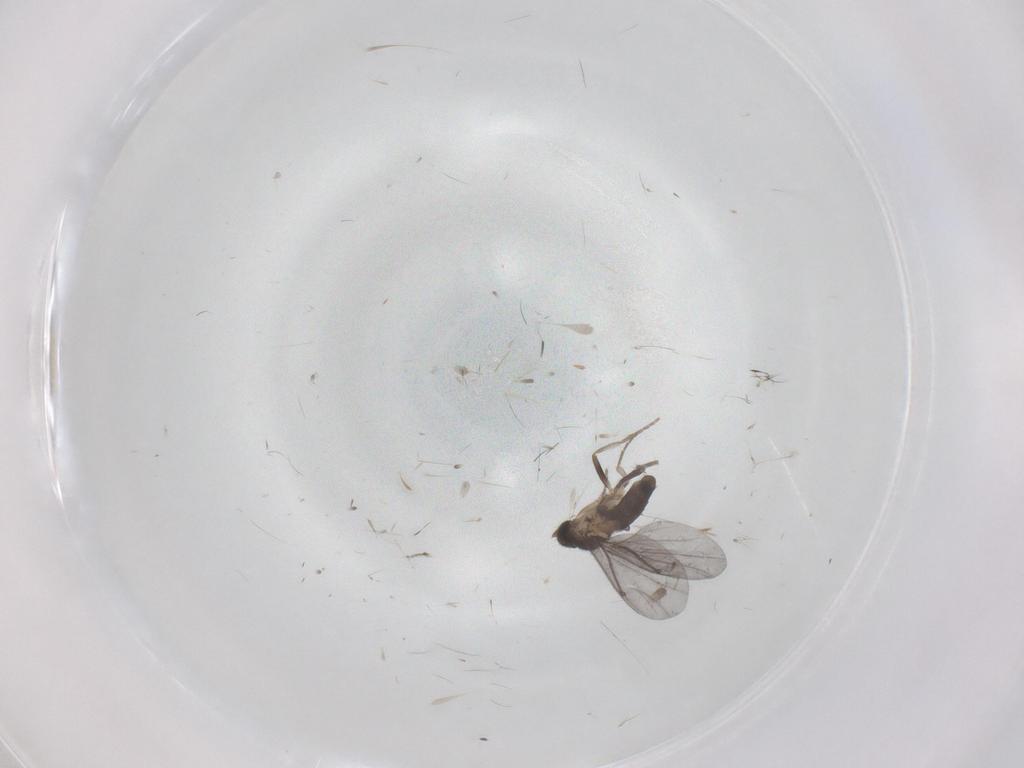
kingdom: Animalia
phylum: Arthropoda
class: Insecta
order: Diptera
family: Phoridae
